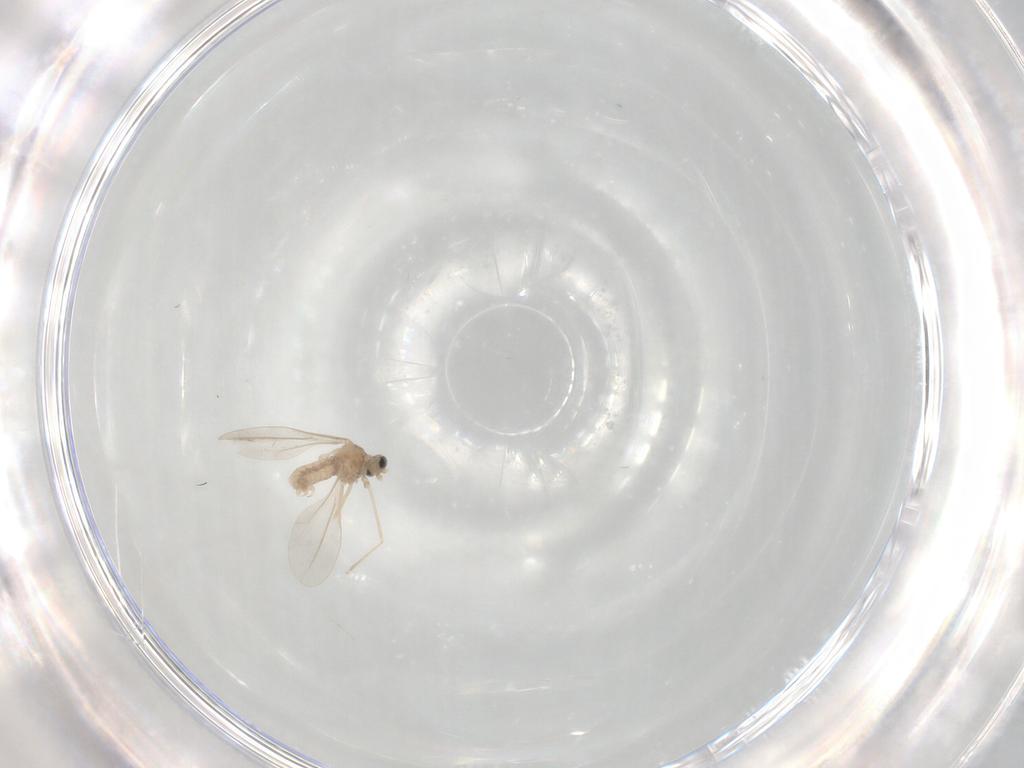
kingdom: Animalia
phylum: Arthropoda
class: Insecta
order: Diptera
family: Cecidomyiidae
